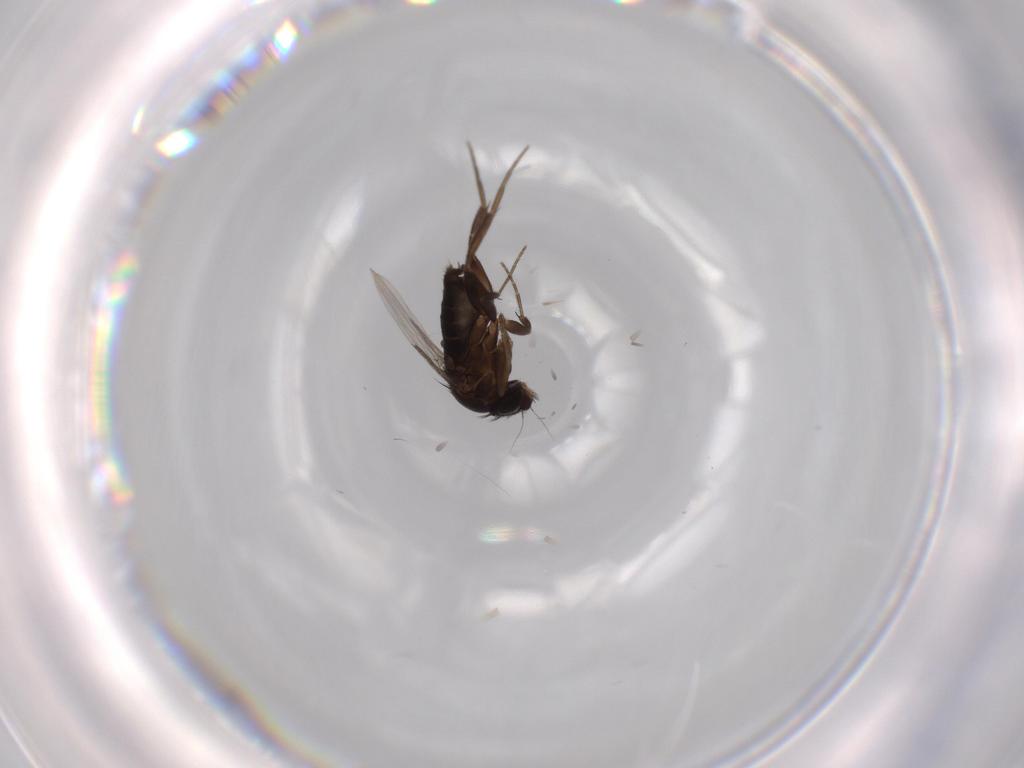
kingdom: Animalia
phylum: Arthropoda
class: Insecta
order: Diptera
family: Phoridae
